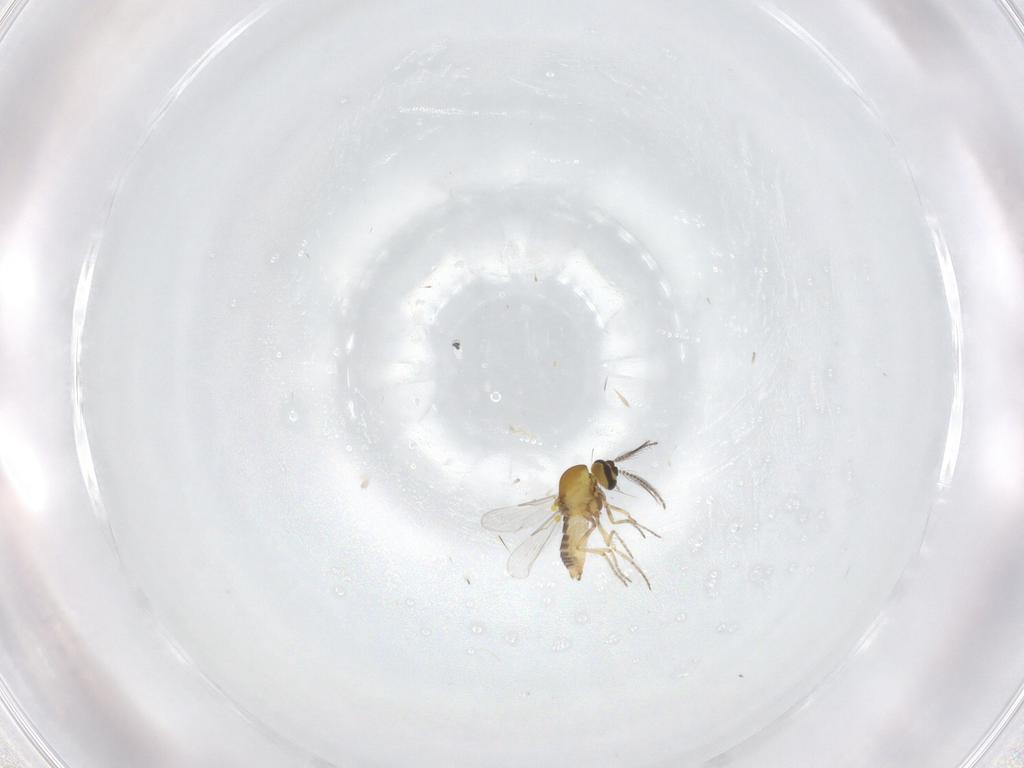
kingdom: Animalia
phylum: Arthropoda
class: Insecta
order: Diptera
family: Ceratopogonidae
